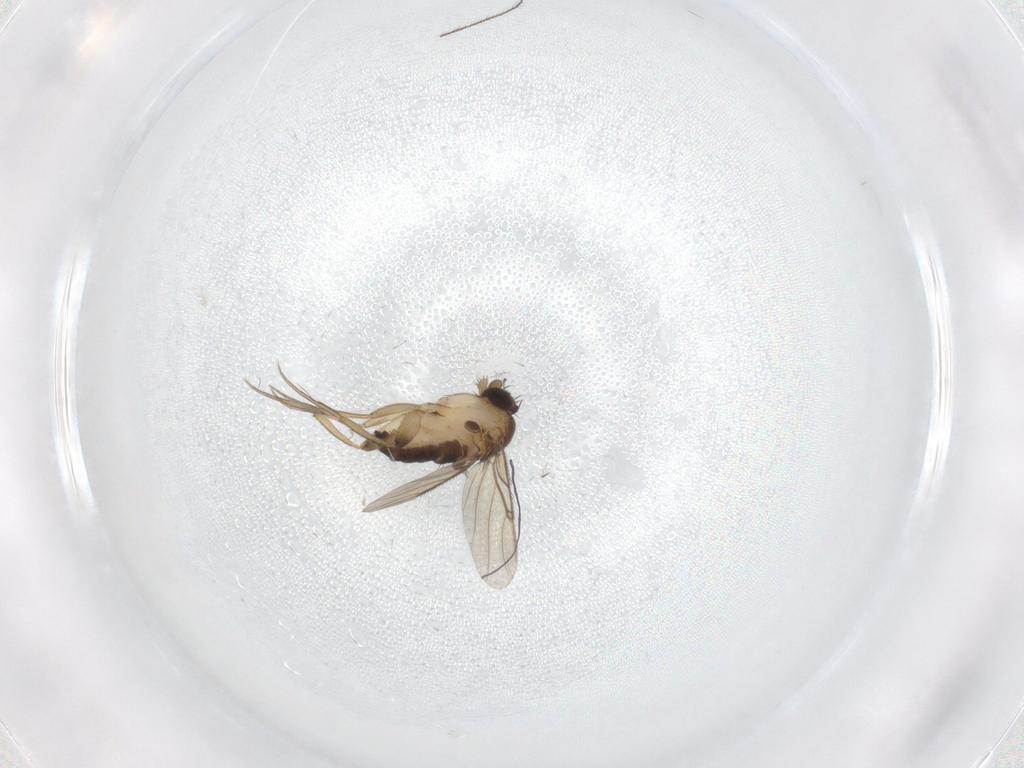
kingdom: Animalia
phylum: Arthropoda
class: Insecta
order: Diptera
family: Phoridae
